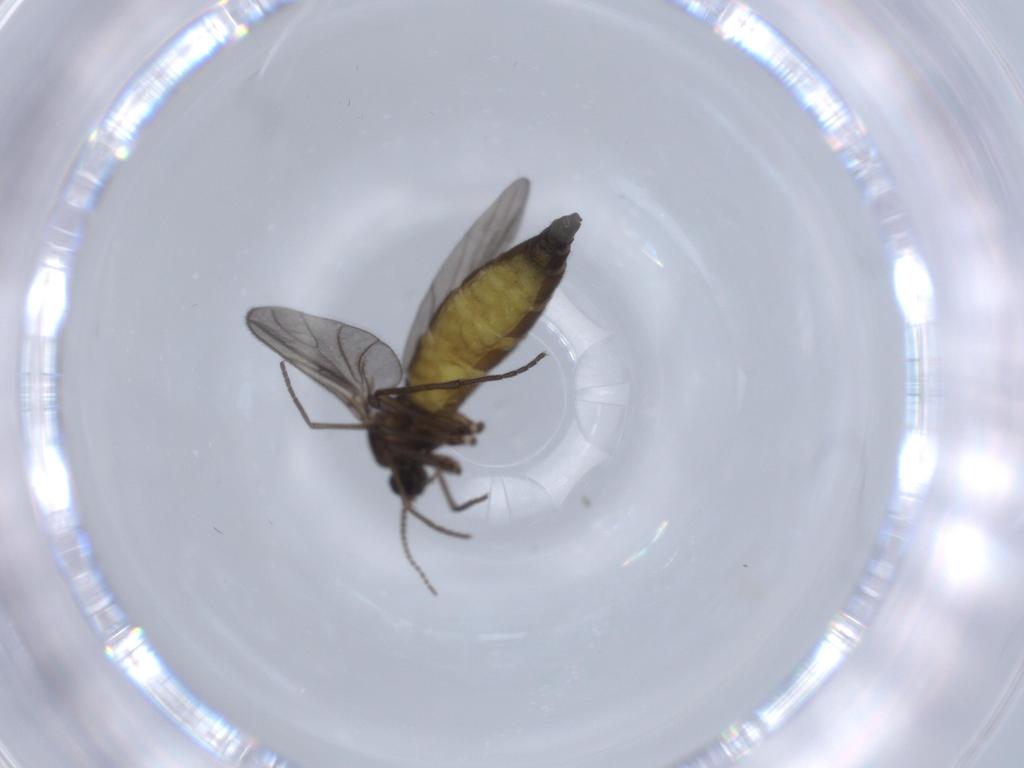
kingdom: Animalia
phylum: Arthropoda
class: Insecta
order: Diptera
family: Sciaridae
